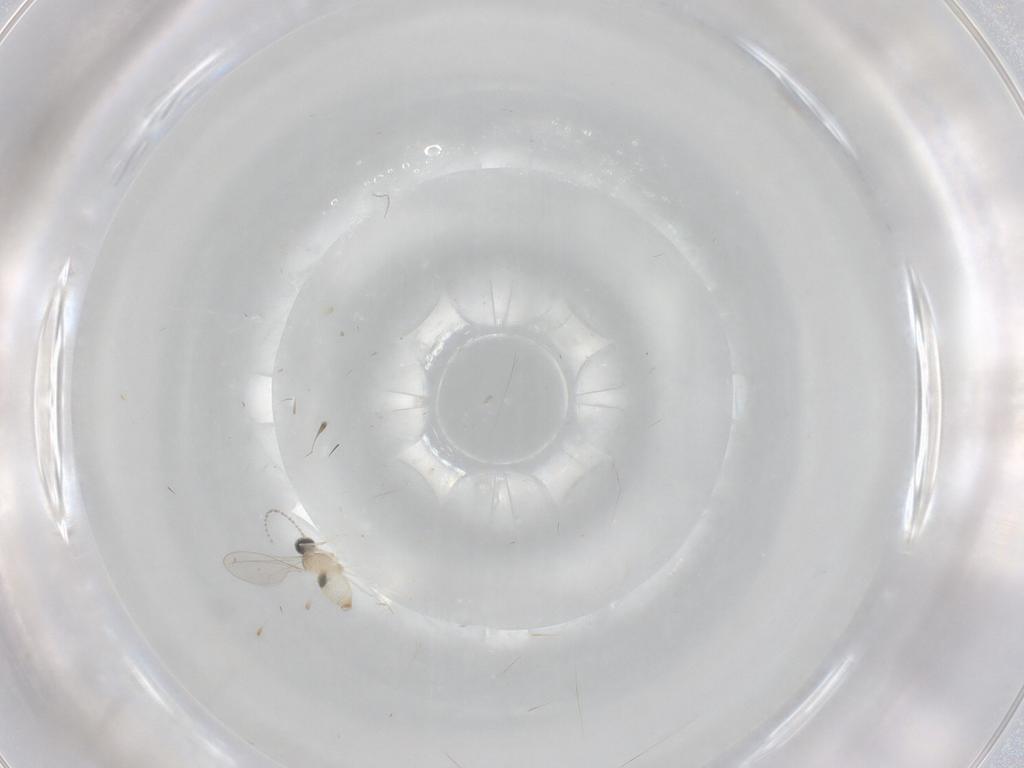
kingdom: Animalia
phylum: Arthropoda
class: Insecta
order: Diptera
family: Cecidomyiidae
